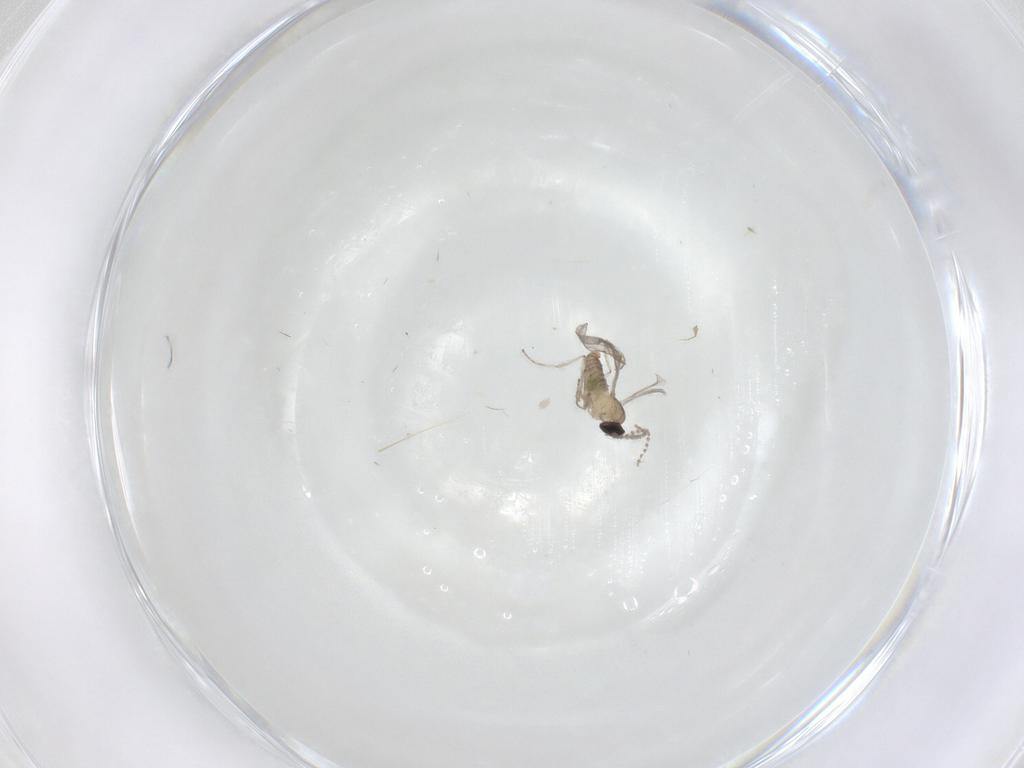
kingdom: Animalia
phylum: Arthropoda
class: Insecta
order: Diptera
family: Cecidomyiidae
